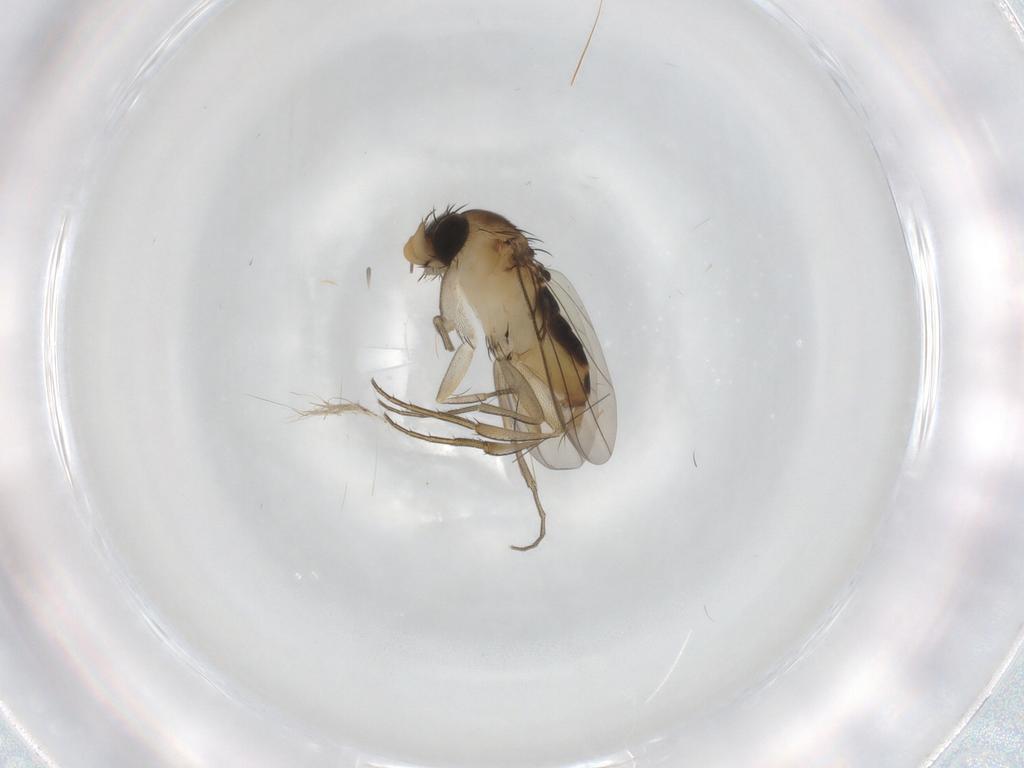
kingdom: Animalia
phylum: Arthropoda
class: Insecta
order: Diptera
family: Phoridae
